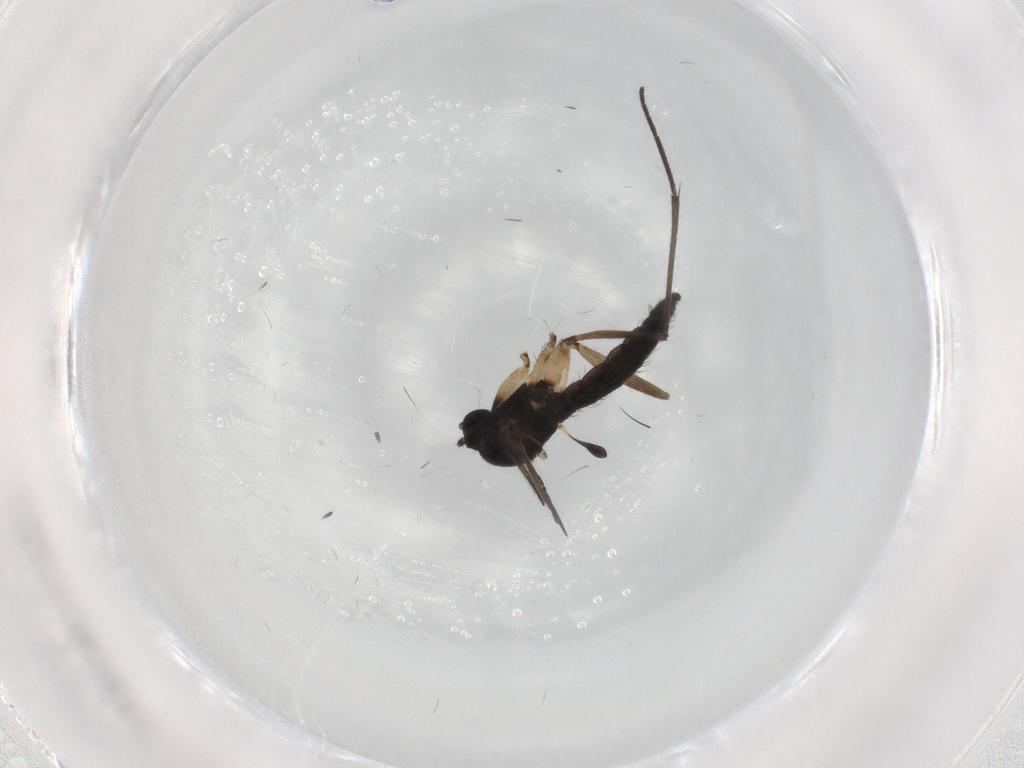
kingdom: Animalia
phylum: Arthropoda
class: Insecta
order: Diptera
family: Sciaridae
